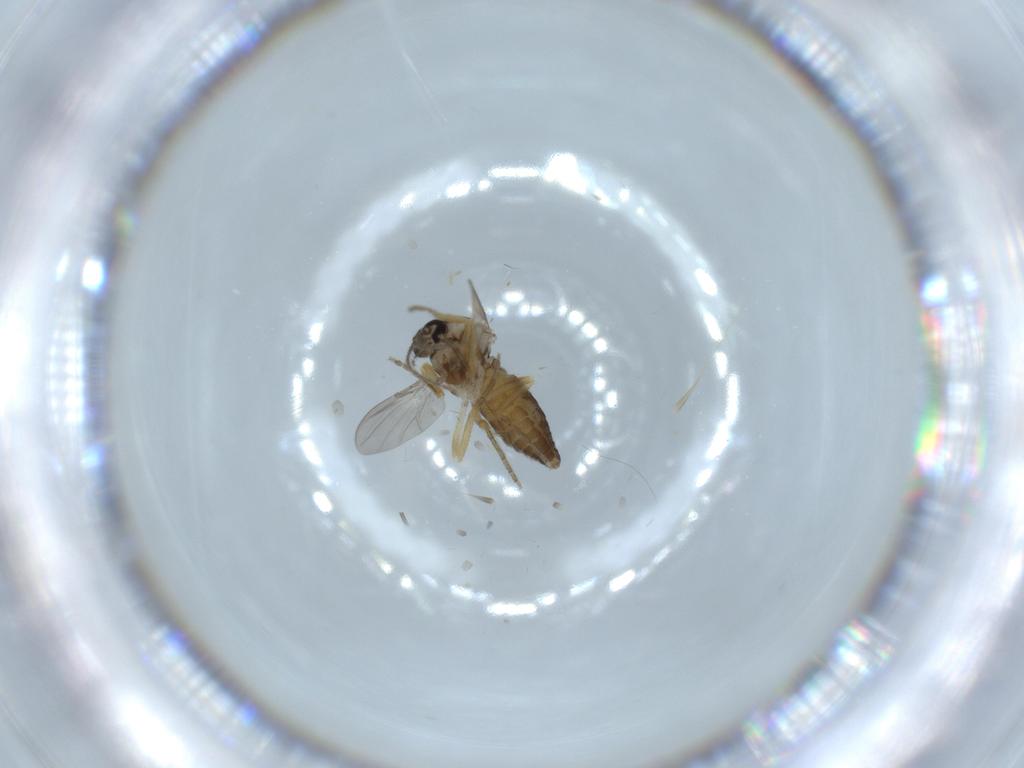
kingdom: Animalia
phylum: Arthropoda
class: Insecta
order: Diptera
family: Ceratopogonidae
